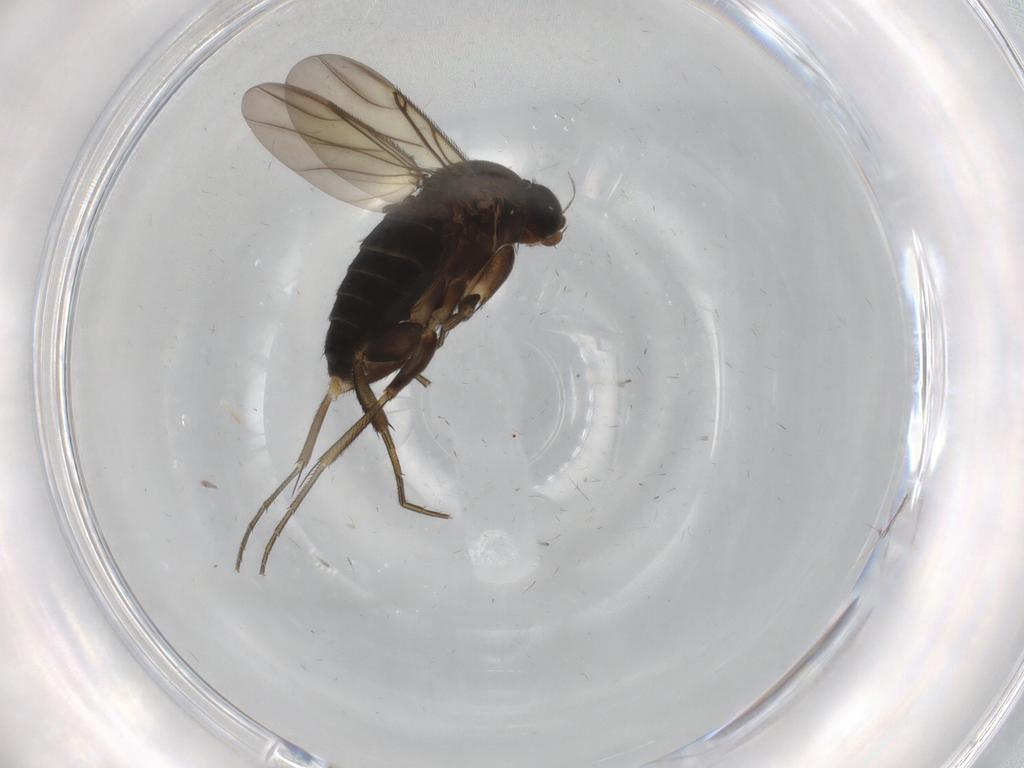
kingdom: Animalia
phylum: Arthropoda
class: Insecta
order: Diptera
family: Phoridae
